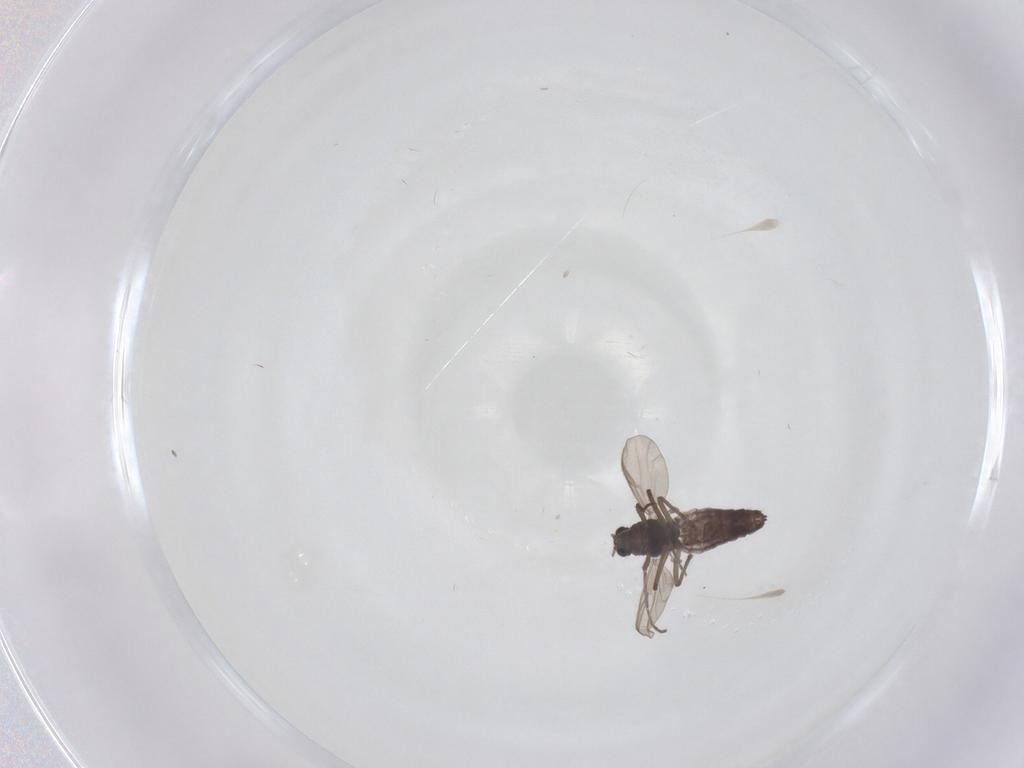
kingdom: Animalia
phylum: Arthropoda
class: Insecta
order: Diptera
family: Chironomidae
